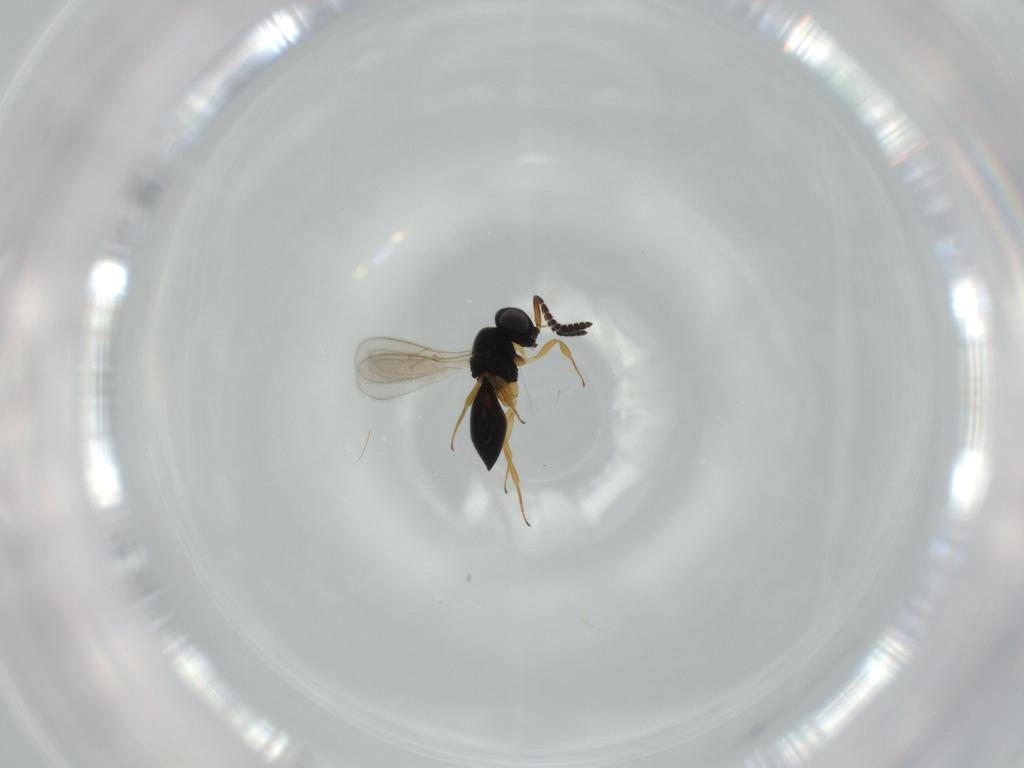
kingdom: Animalia
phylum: Arthropoda
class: Insecta
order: Hymenoptera
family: Scelionidae
